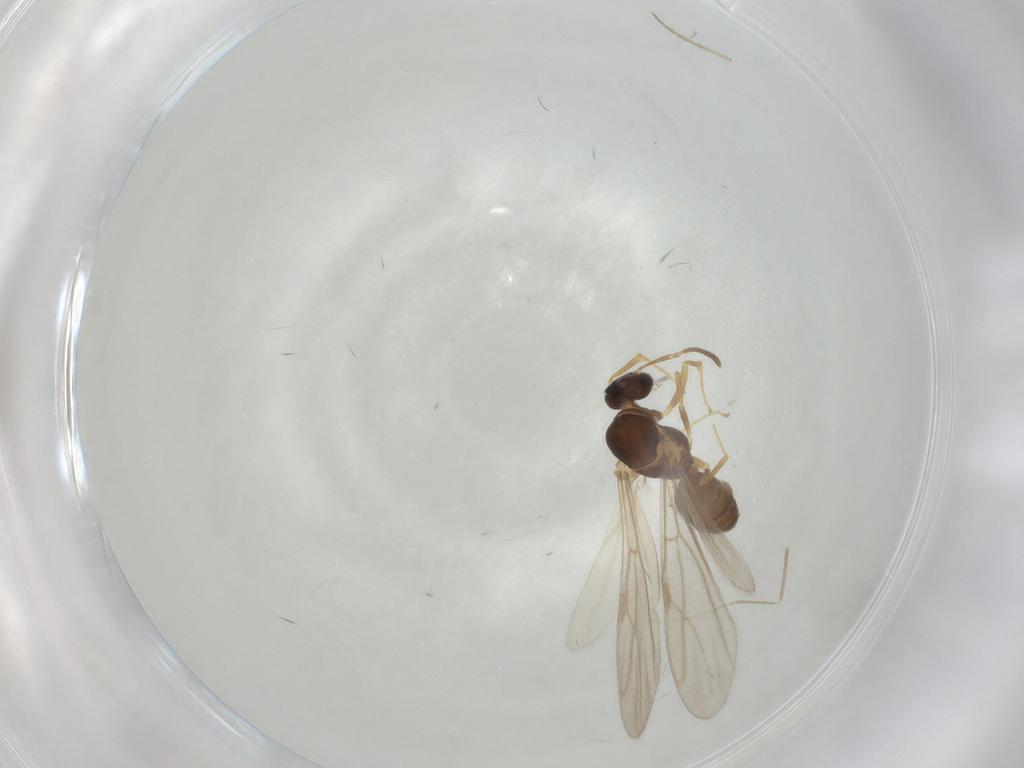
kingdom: Animalia
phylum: Arthropoda
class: Insecta
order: Hymenoptera
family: Formicidae
